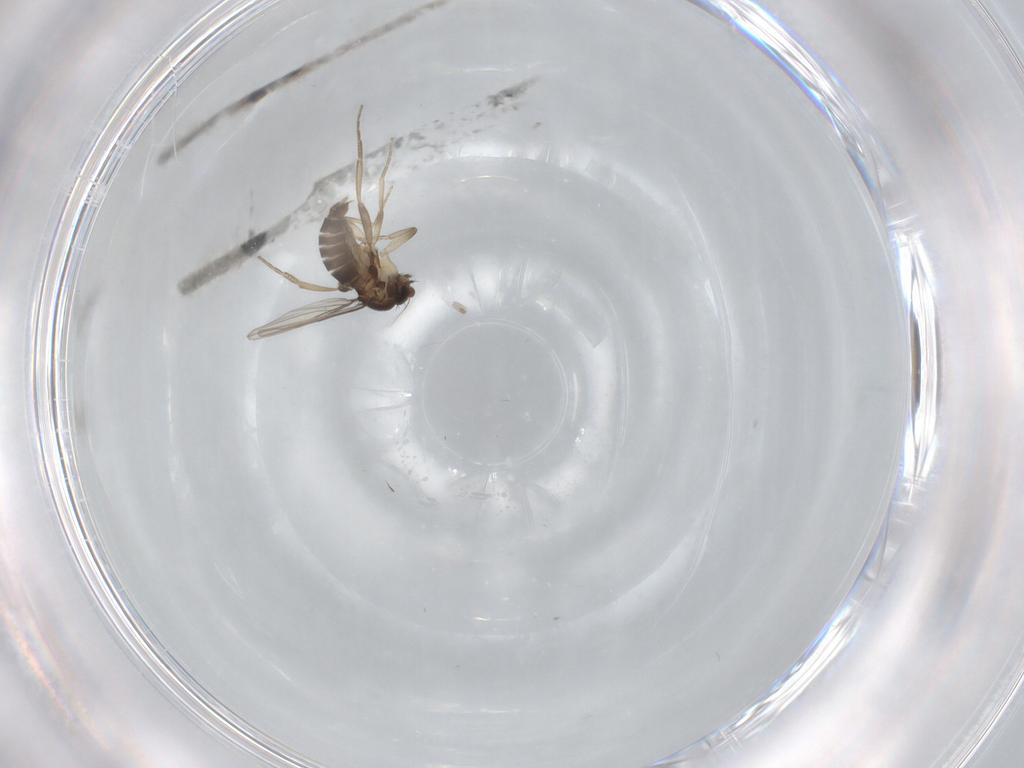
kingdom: Animalia
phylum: Arthropoda
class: Insecta
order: Diptera
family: Phoridae
